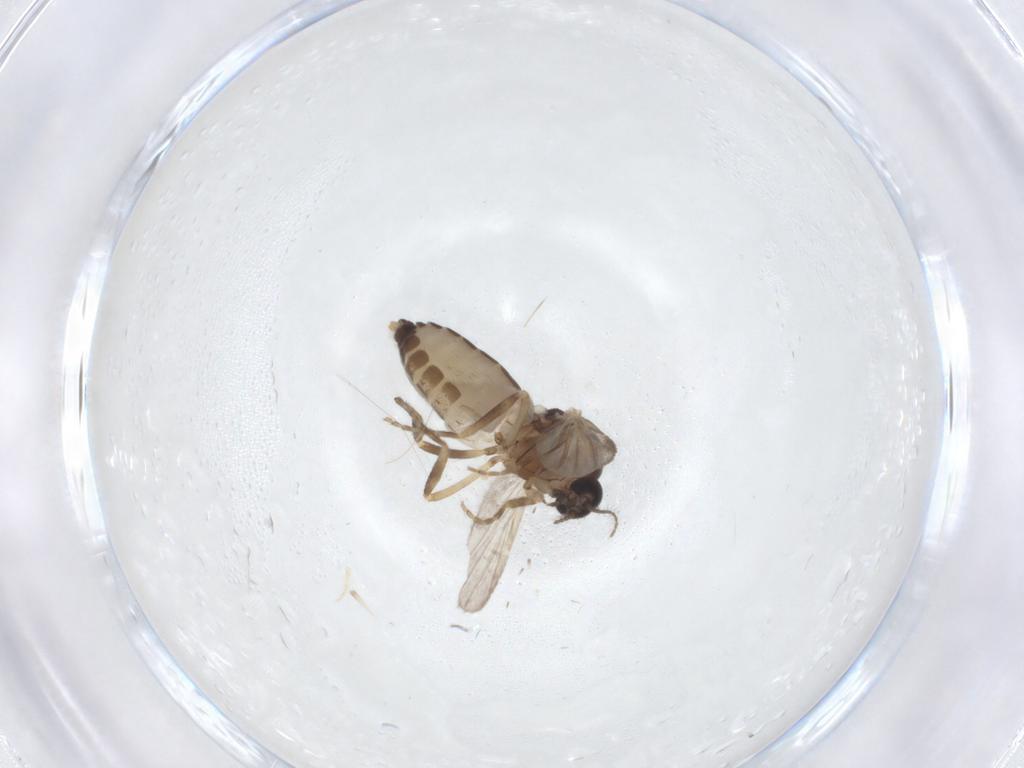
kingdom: Animalia
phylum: Arthropoda
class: Insecta
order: Diptera
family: Ceratopogonidae
